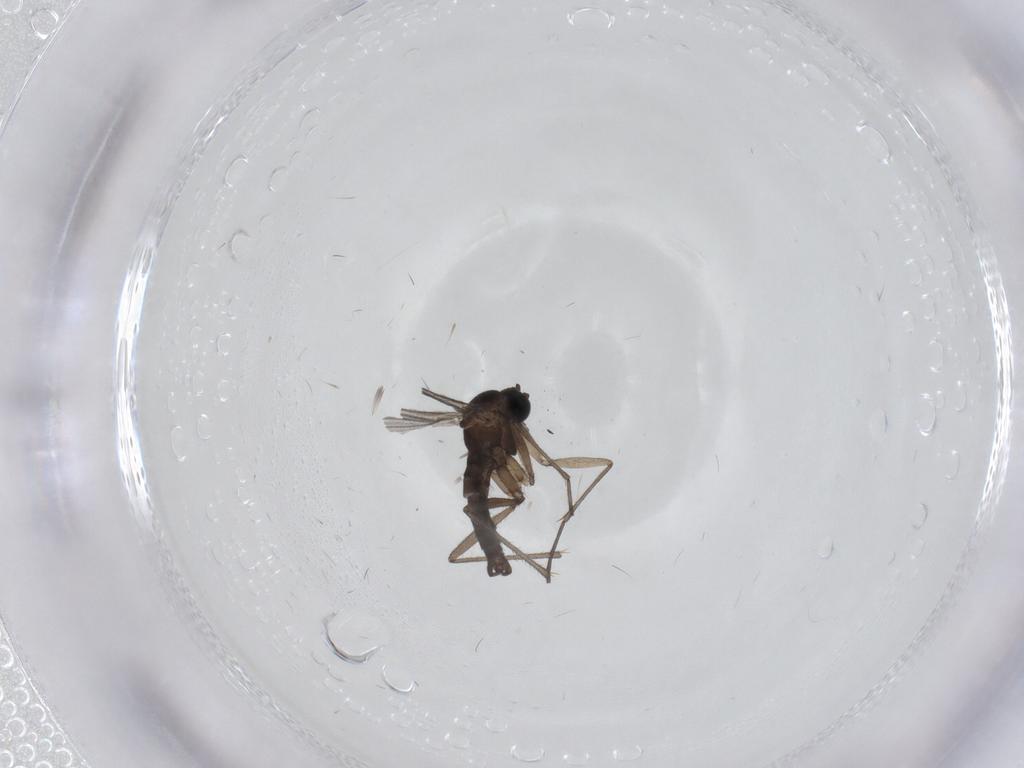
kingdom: Animalia
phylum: Arthropoda
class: Insecta
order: Diptera
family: Sciaridae
